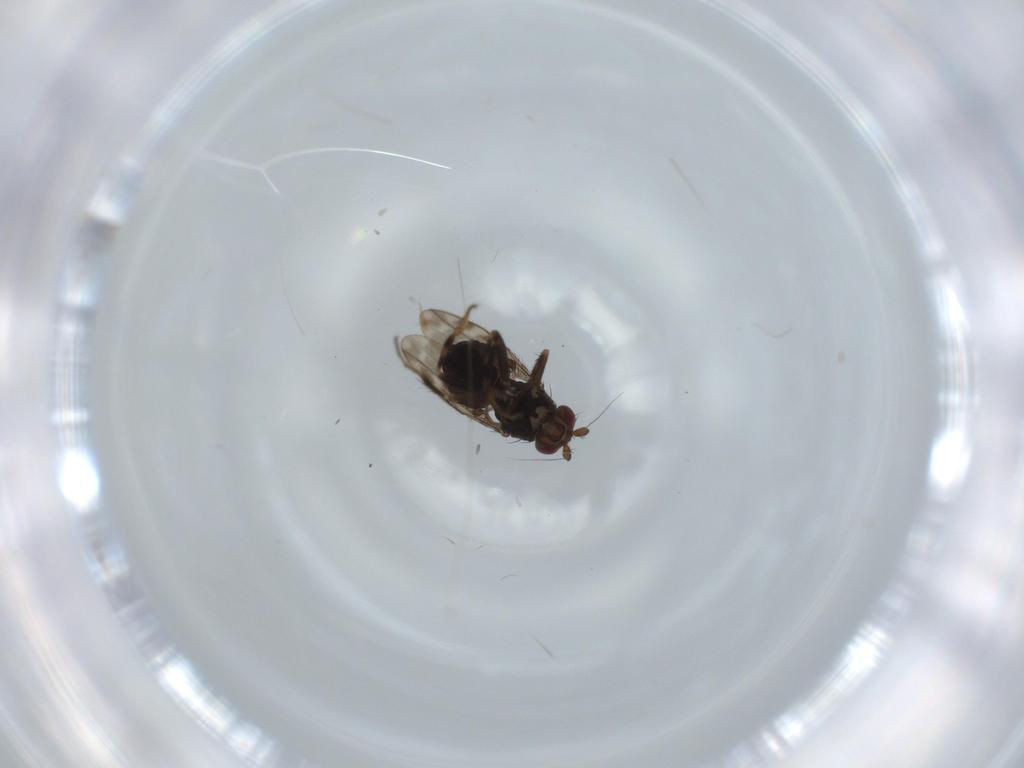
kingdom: Animalia
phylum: Arthropoda
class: Insecta
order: Diptera
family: Sphaeroceridae
